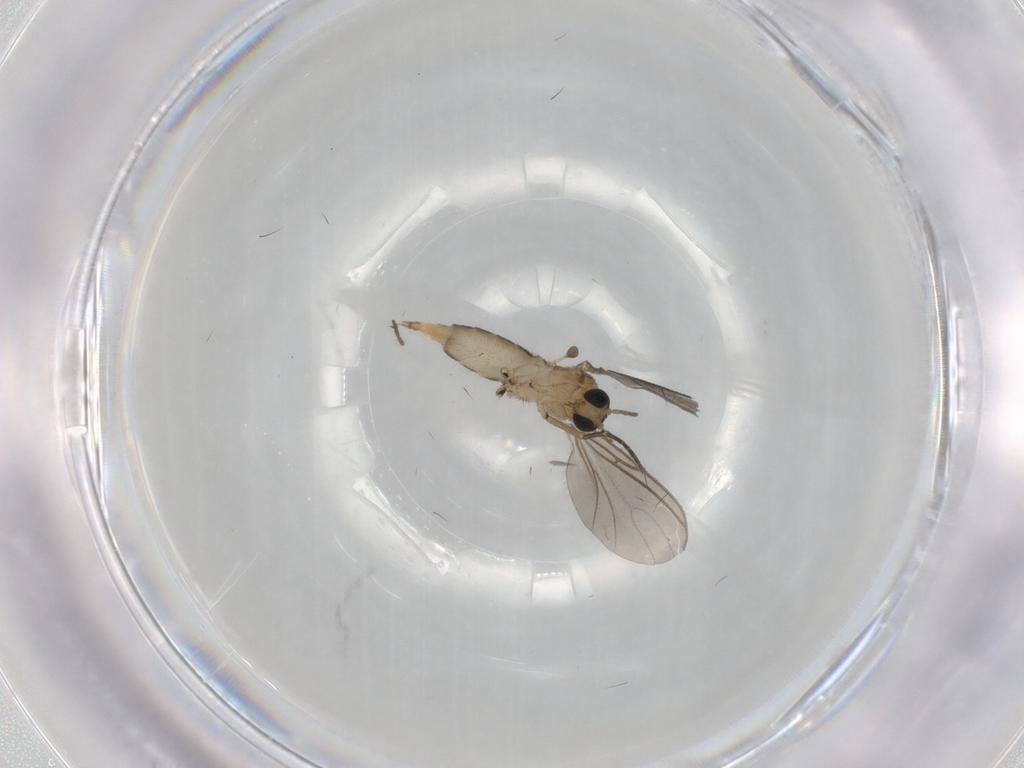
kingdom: Animalia
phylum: Arthropoda
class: Insecta
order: Diptera
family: Sciaridae
